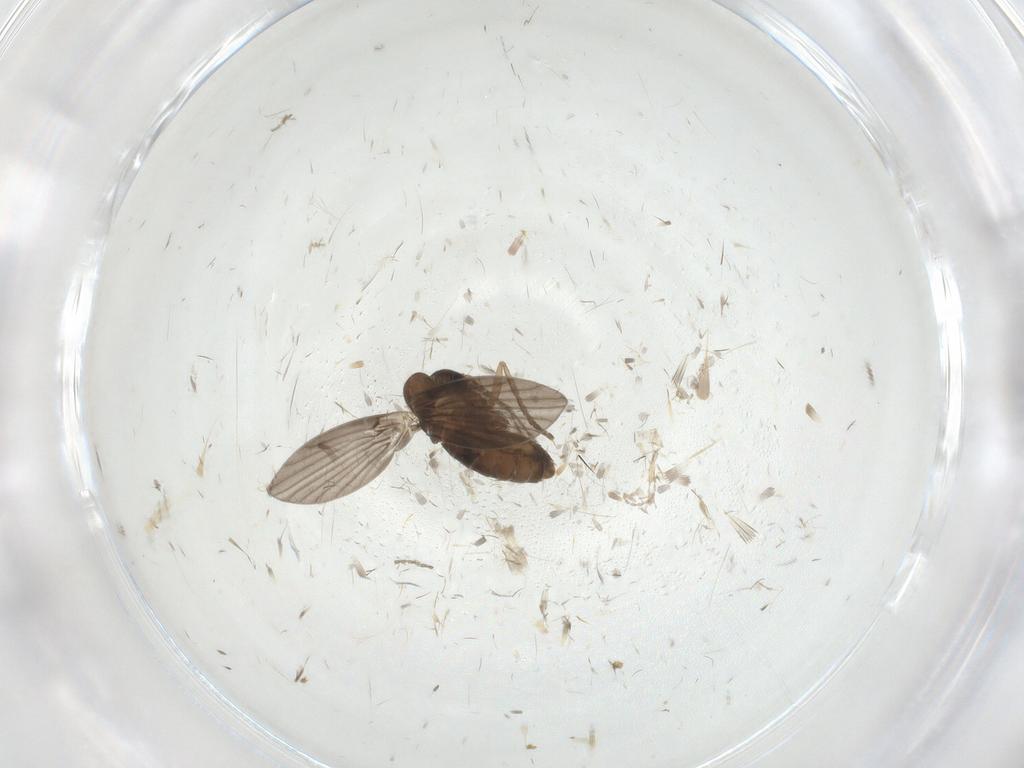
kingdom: Animalia
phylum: Arthropoda
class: Insecta
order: Diptera
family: Psychodidae
